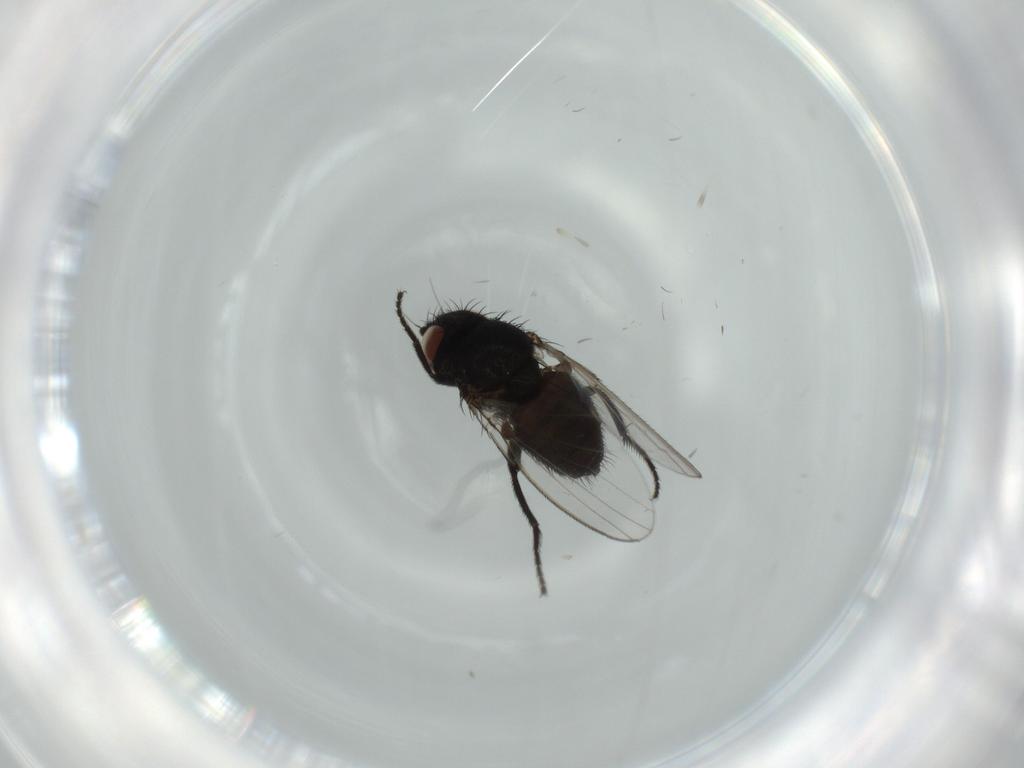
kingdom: Animalia
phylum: Arthropoda
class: Insecta
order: Diptera
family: Milichiidae
